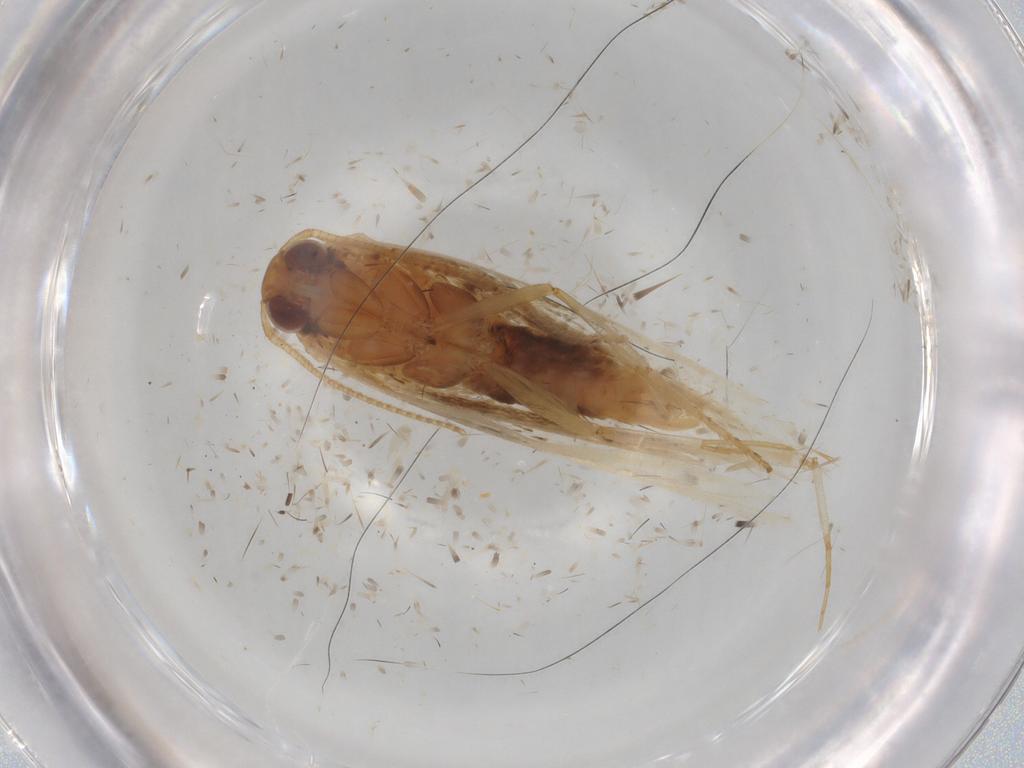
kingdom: Animalia
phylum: Arthropoda
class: Insecta
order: Lepidoptera
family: Gelechiidae
